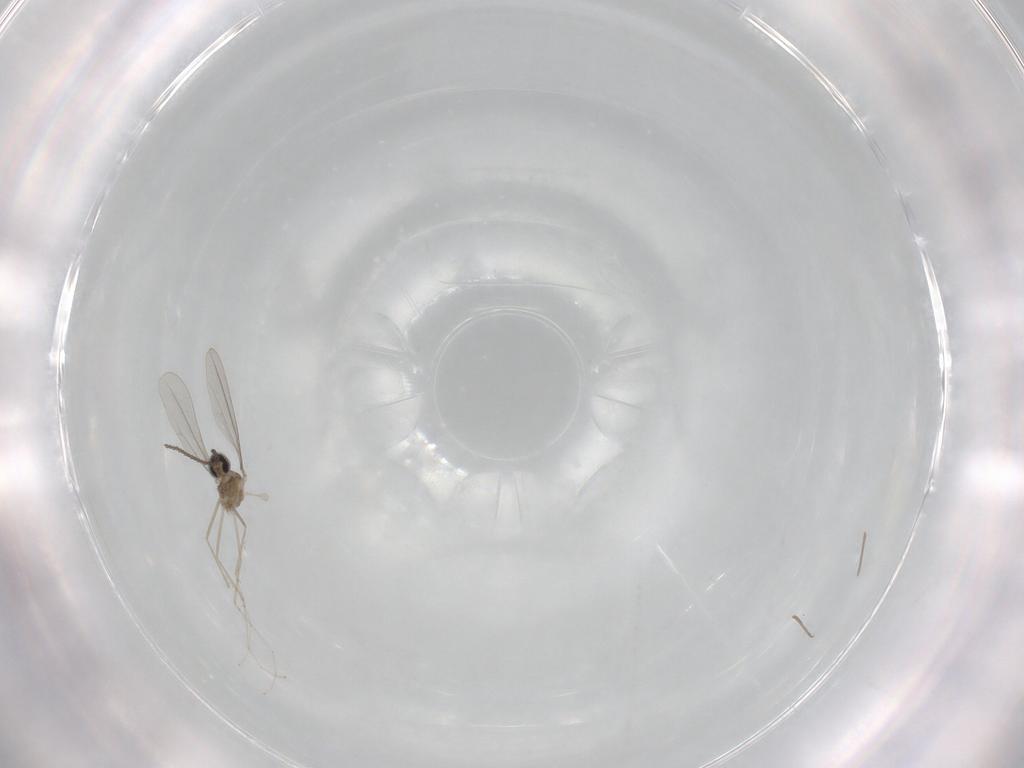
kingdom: Animalia
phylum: Arthropoda
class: Insecta
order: Diptera
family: Cecidomyiidae
